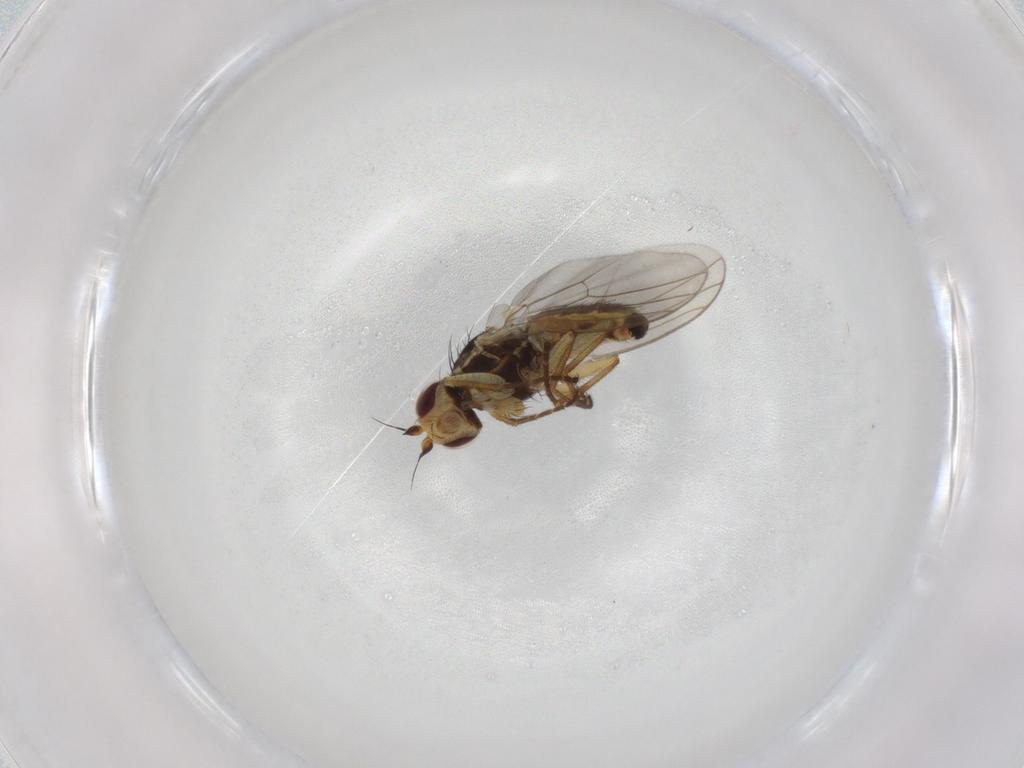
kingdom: Animalia
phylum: Arthropoda
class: Insecta
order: Diptera
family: Agromyzidae
